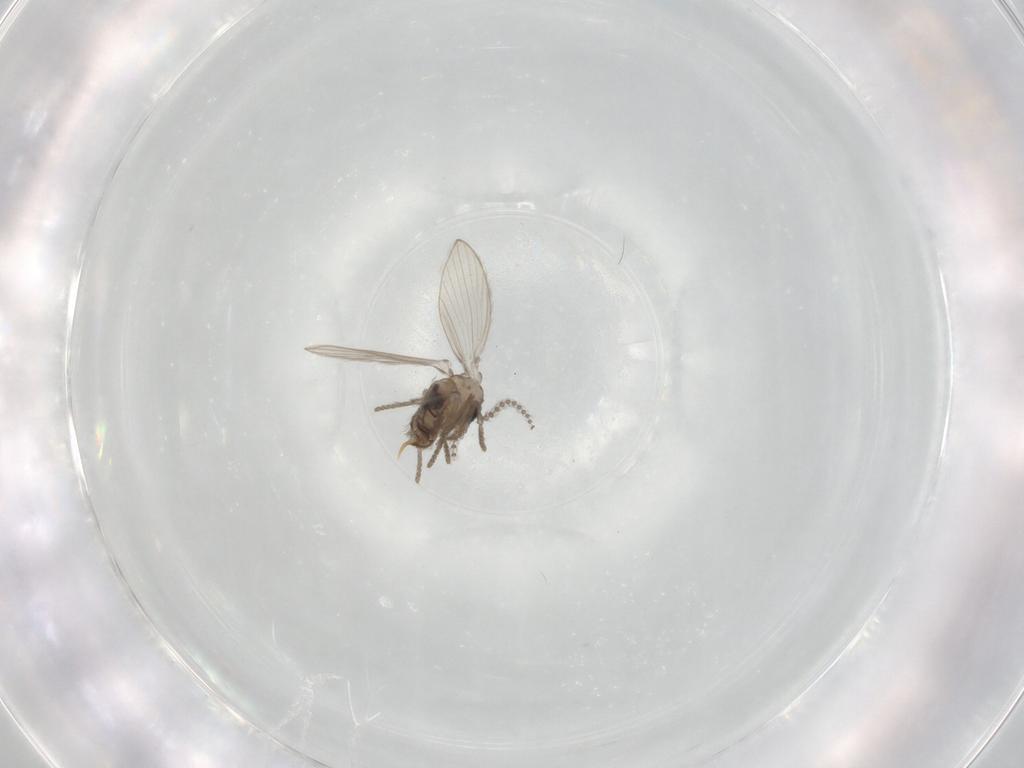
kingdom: Animalia
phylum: Arthropoda
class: Insecta
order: Diptera
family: Psychodidae
